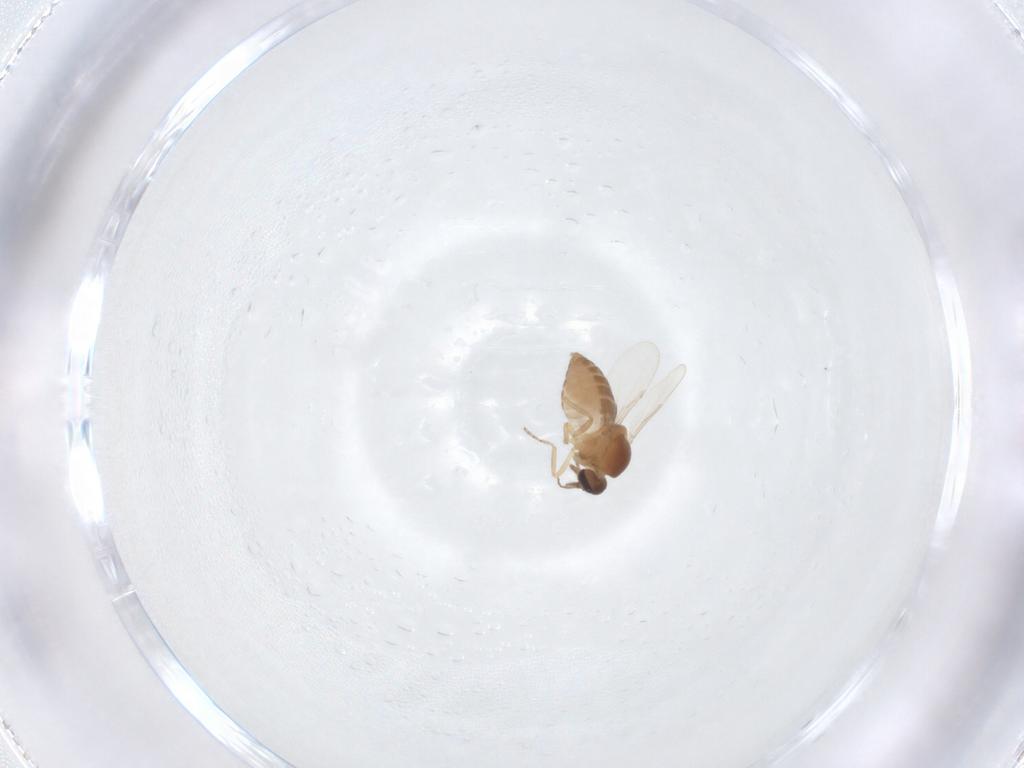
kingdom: Animalia
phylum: Arthropoda
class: Insecta
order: Diptera
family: Ceratopogonidae
